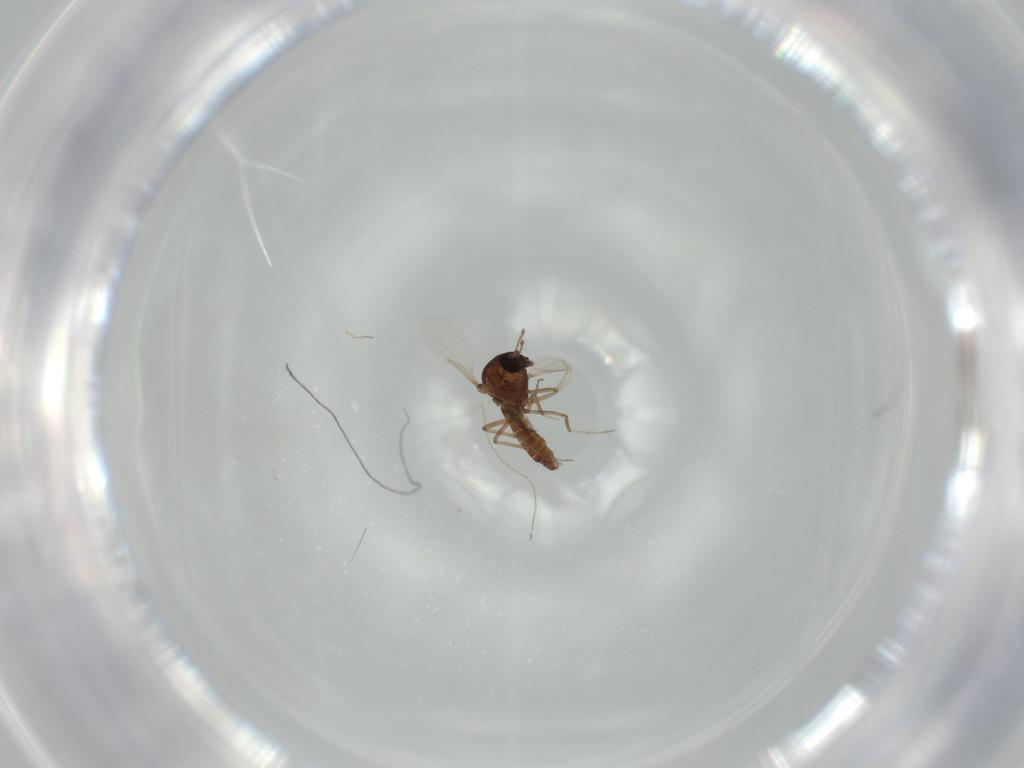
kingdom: Animalia
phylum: Arthropoda
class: Insecta
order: Diptera
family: Ceratopogonidae
